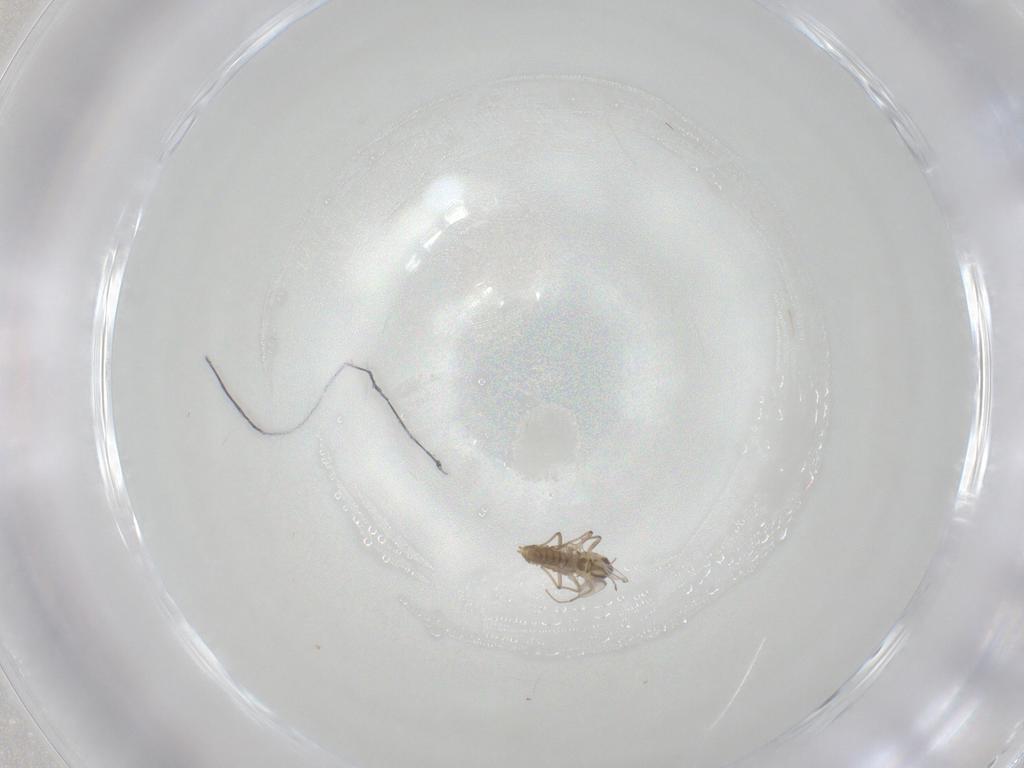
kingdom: Animalia
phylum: Arthropoda
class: Insecta
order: Diptera
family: Chironomidae
